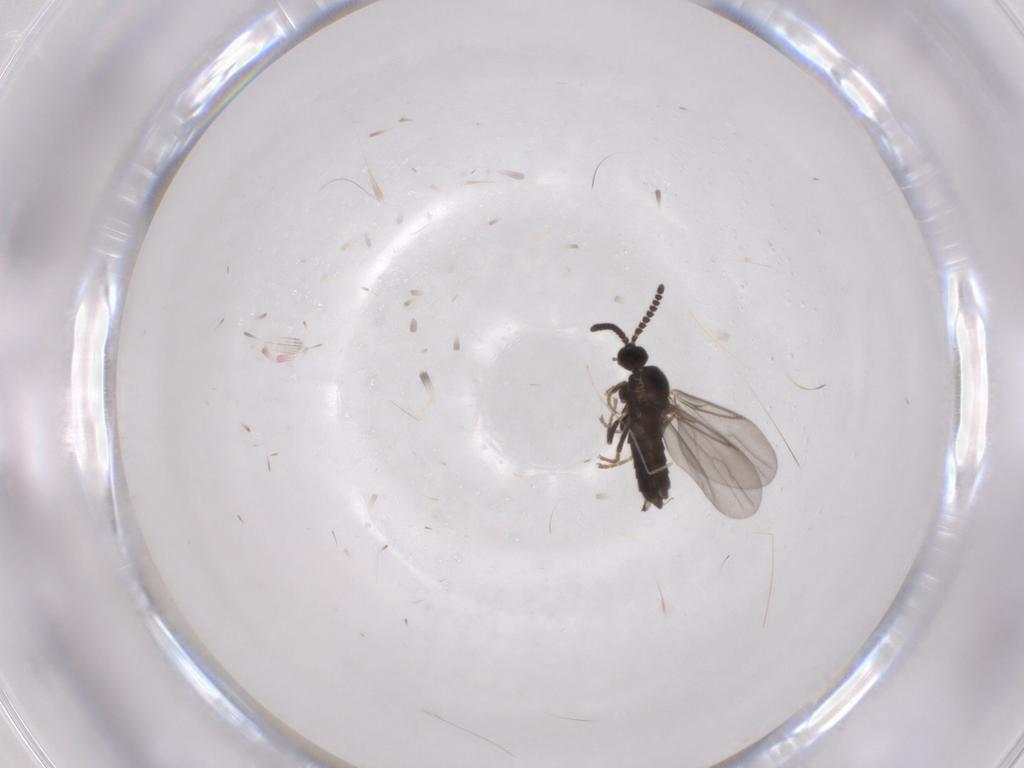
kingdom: Animalia
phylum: Arthropoda
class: Insecta
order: Diptera
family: Scatopsidae
